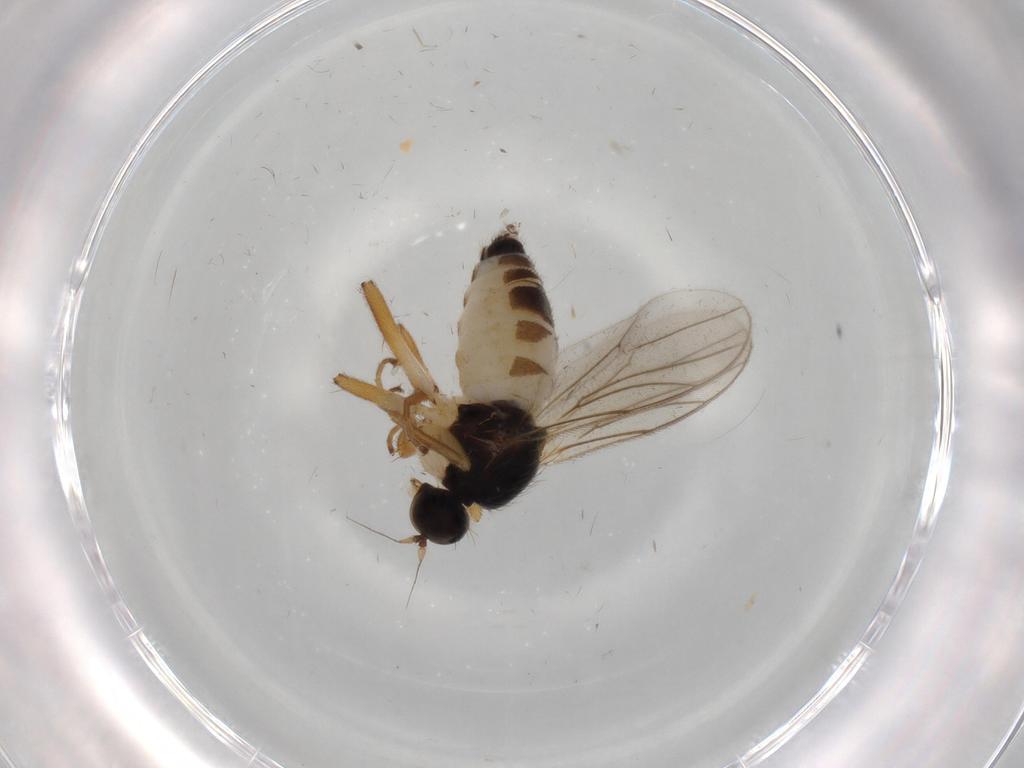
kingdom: Animalia
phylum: Arthropoda
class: Insecta
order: Diptera
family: Hybotidae
